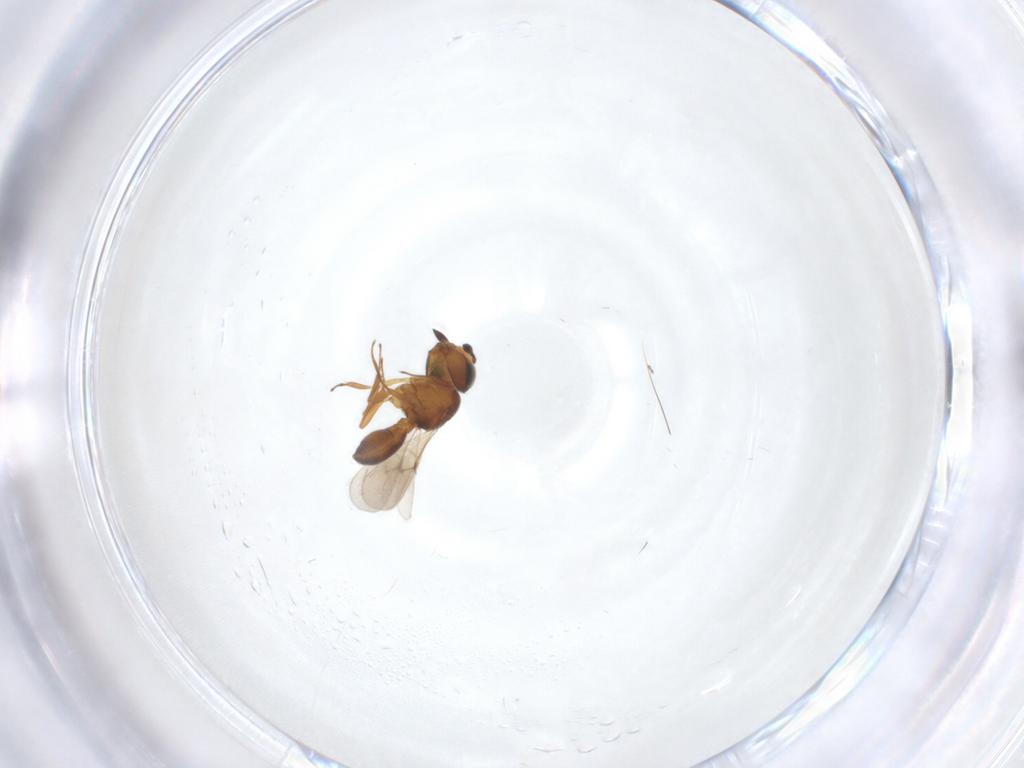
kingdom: Animalia
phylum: Arthropoda
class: Insecta
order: Hymenoptera
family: Scelionidae
